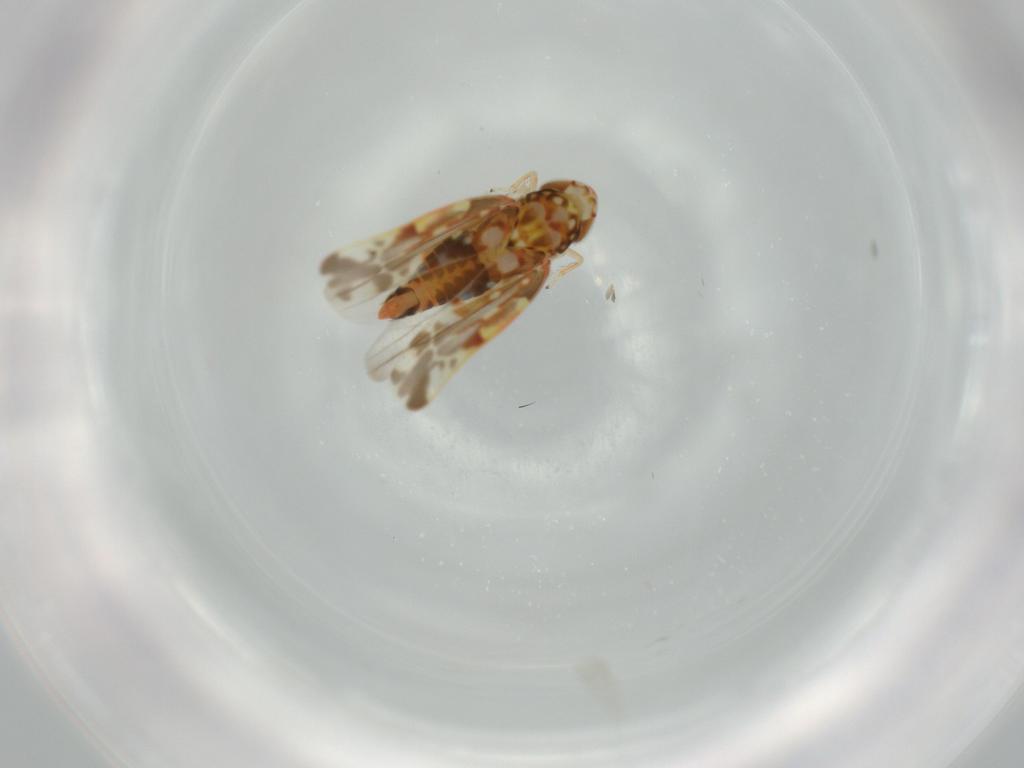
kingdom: Animalia
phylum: Arthropoda
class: Insecta
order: Hemiptera
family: Cicadellidae
